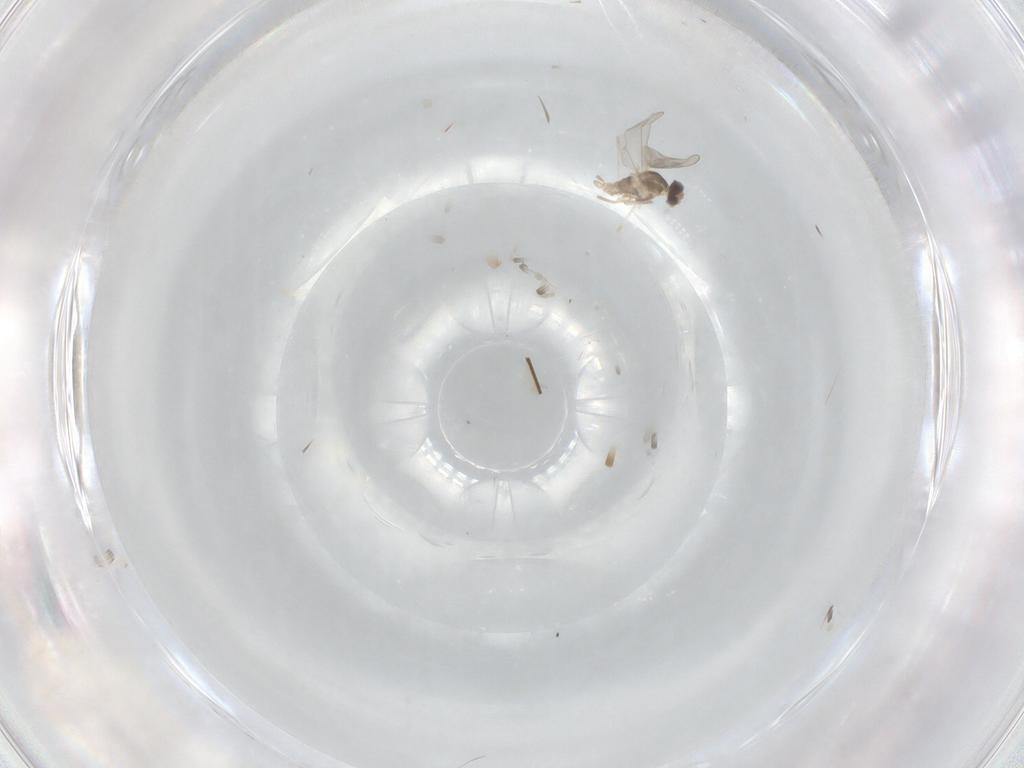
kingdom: Animalia
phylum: Arthropoda
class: Insecta
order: Diptera
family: Cecidomyiidae
